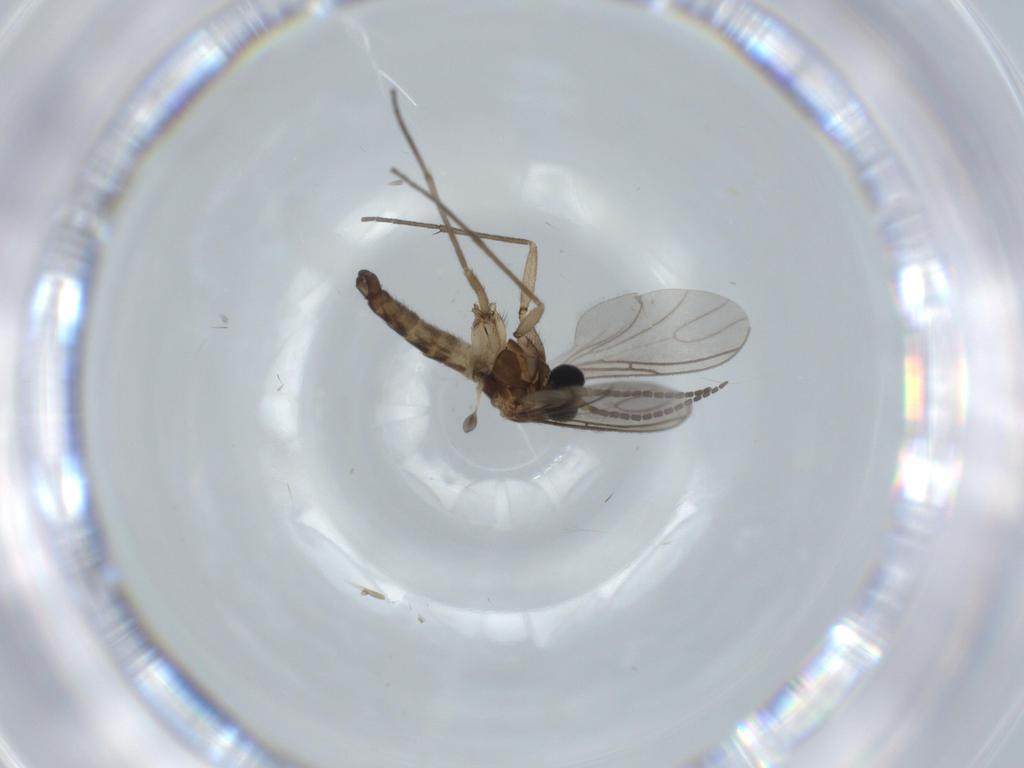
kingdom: Animalia
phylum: Arthropoda
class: Insecta
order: Diptera
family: Sciaridae
